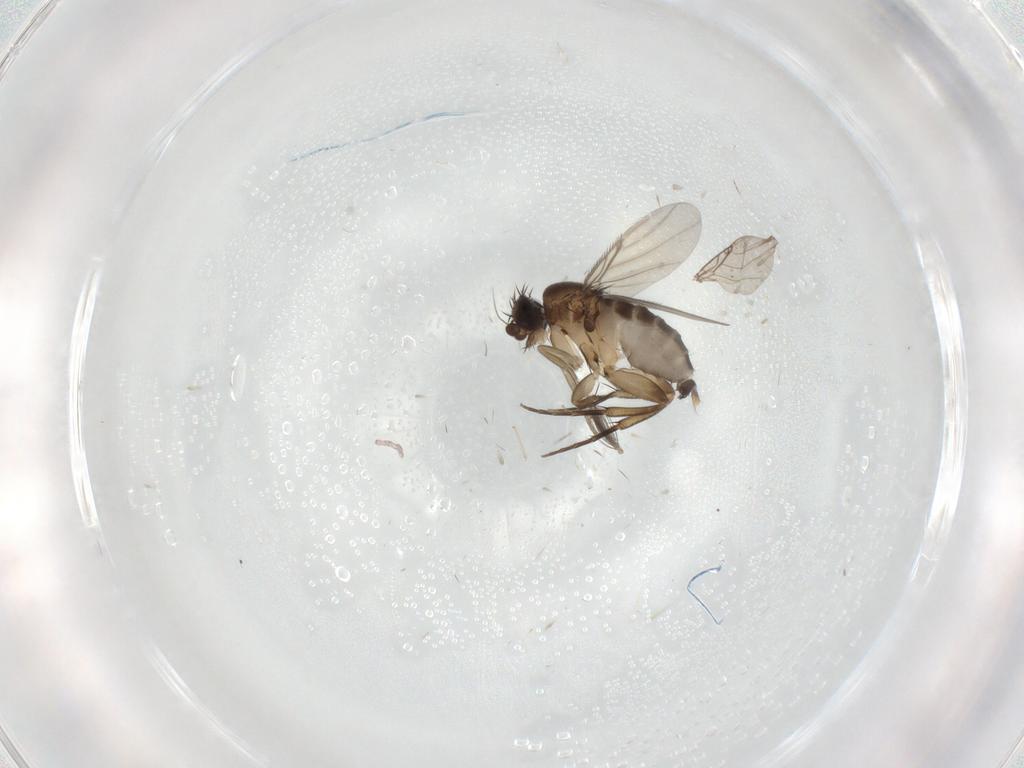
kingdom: Animalia
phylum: Arthropoda
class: Insecta
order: Diptera
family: Phoridae
